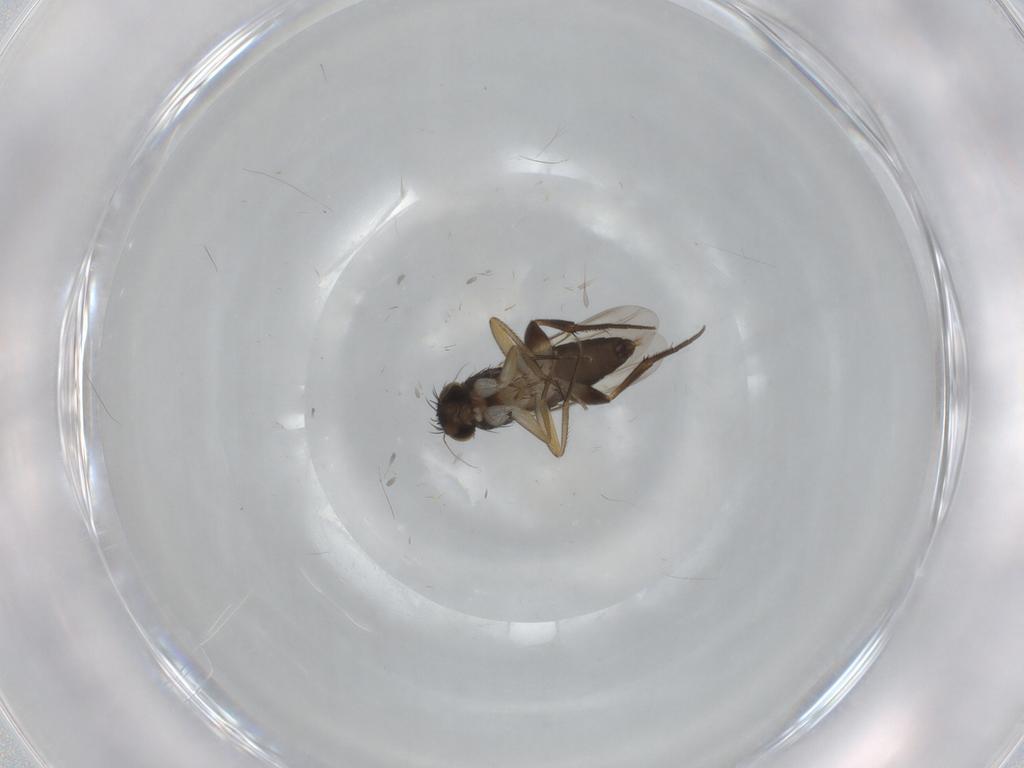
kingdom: Animalia
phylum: Arthropoda
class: Insecta
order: Diptera
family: Phoridae
